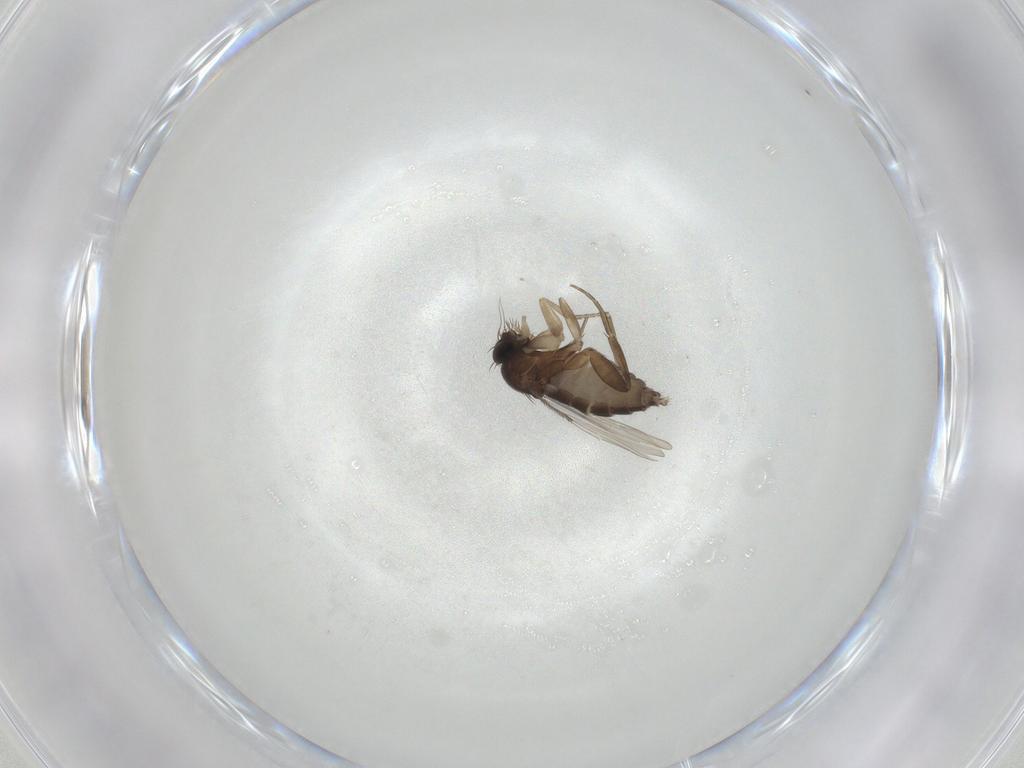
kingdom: Animalia
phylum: Arthropoda
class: Insecta
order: Diptera
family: Phoridae
